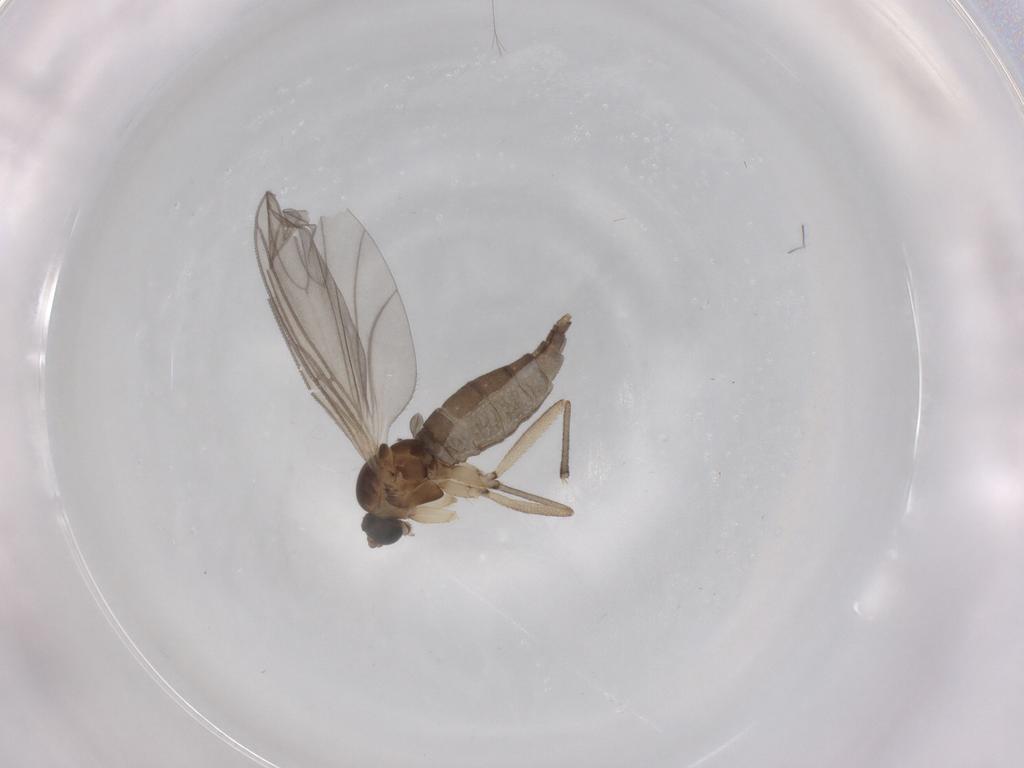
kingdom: Animalia
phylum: Arthropoda
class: Insecta
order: Diptera
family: Sciaridae
